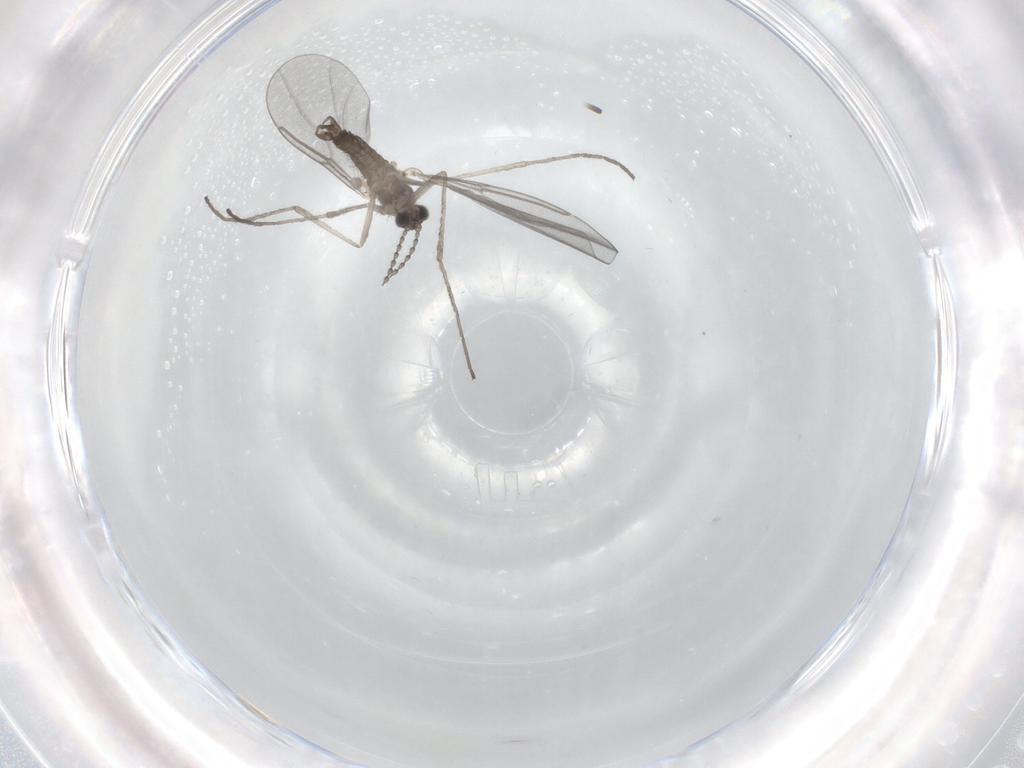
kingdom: Animalia
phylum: Arthropoda
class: Insecta
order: Diptera
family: Cecidomyiidae
